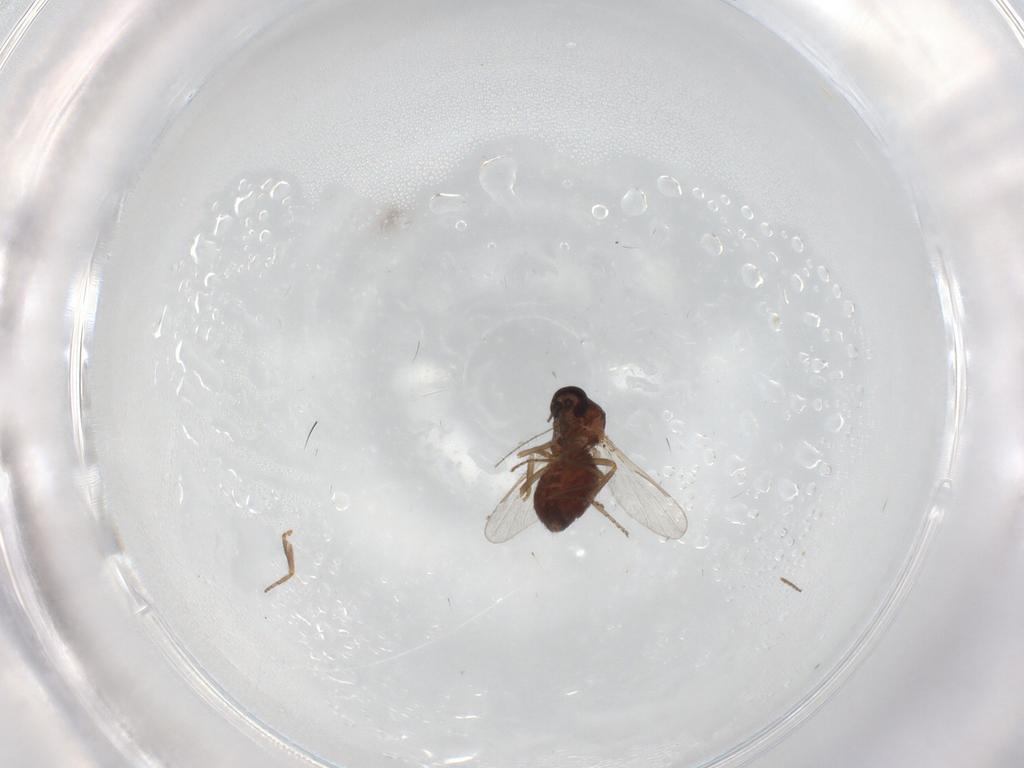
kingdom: Animalia
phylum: Arthropoda
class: Insecta
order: Diptera
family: Ceratopogonidae
